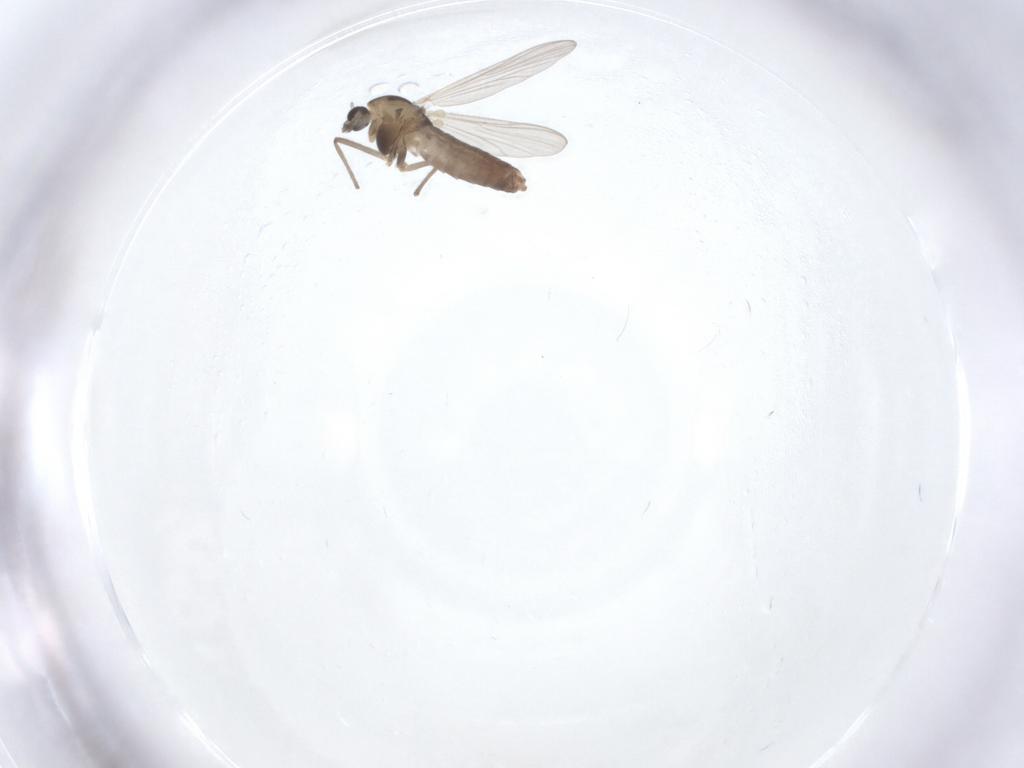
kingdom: Animalia
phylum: Arthropoda
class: Insecta
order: Diptera
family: Chironomidae
